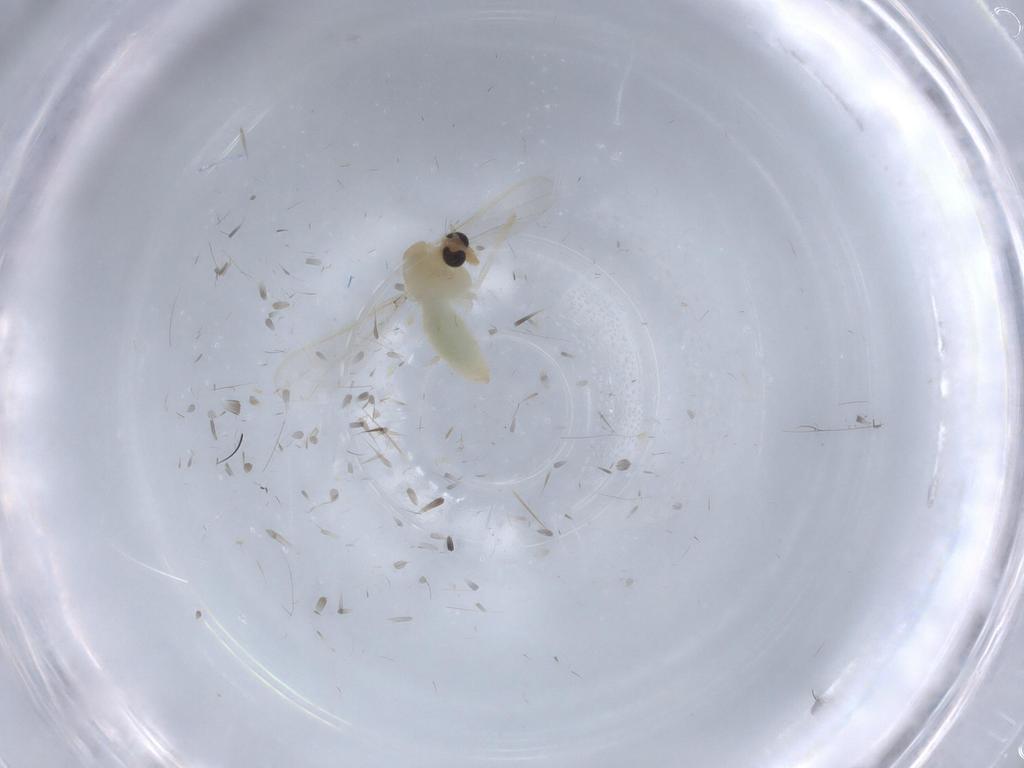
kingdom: Animalia
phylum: Arthropoda
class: Insecta
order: Diptera
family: Chironomidae
